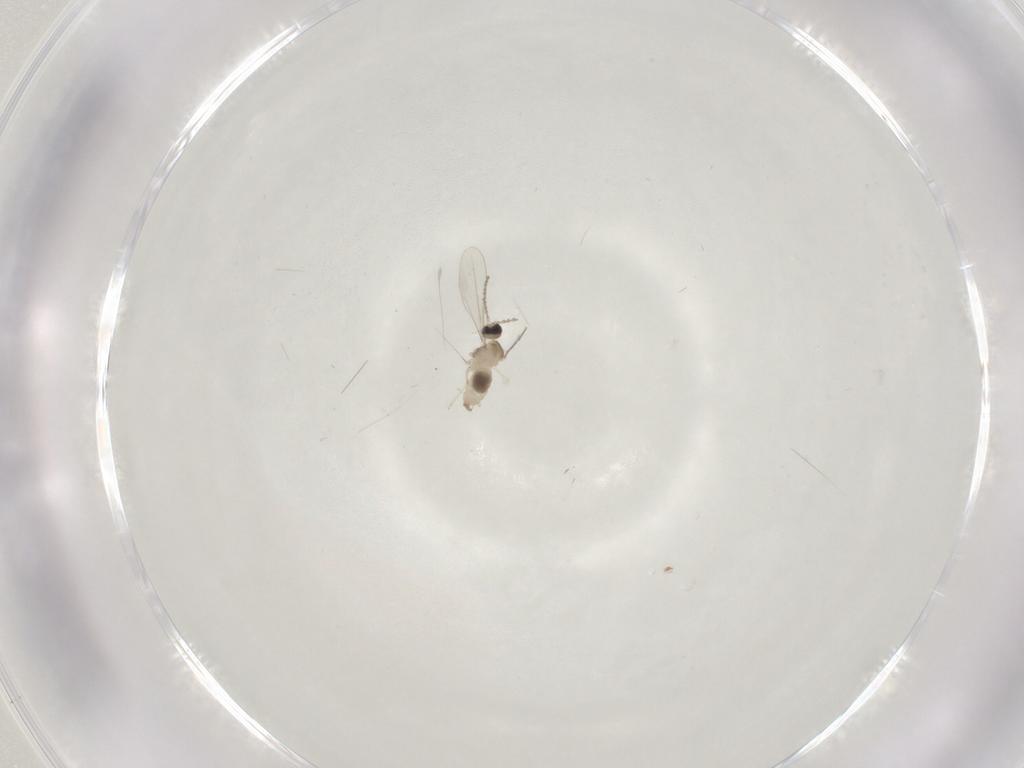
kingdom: Animalia
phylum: Arthropoda
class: Insecta
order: Diptera
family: Cecidomyiidae
